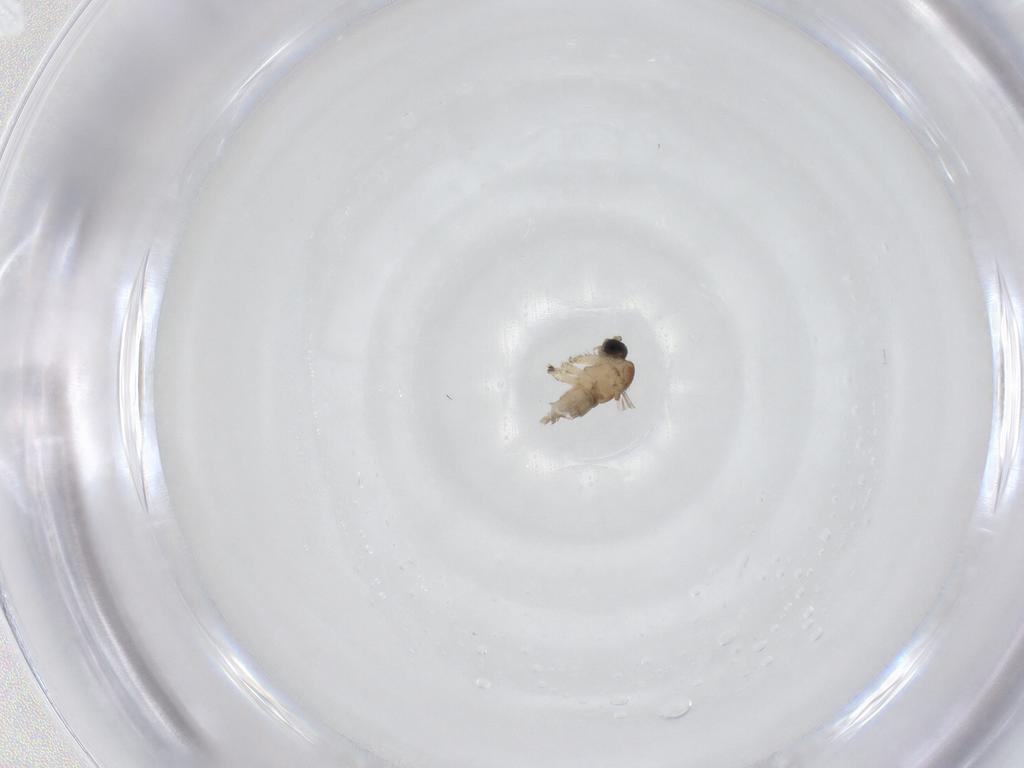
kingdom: Animalia
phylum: Arthropoda
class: Insecta
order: Diptera
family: Sciaridae
